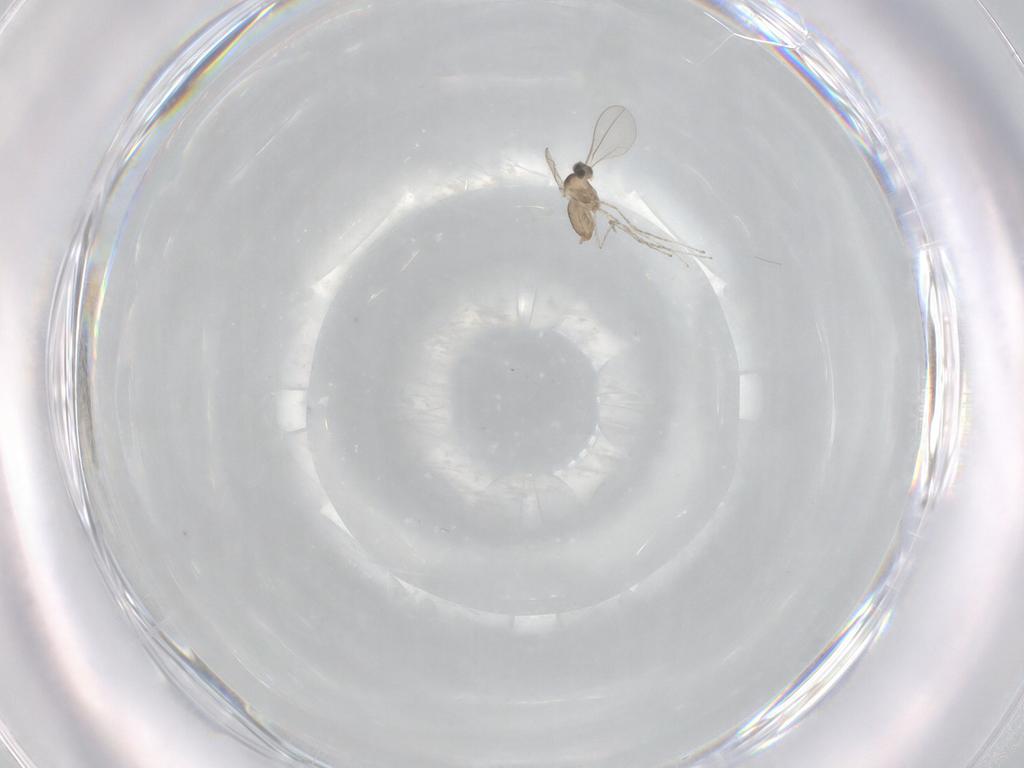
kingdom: Animalia
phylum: Arthropoda
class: Insecta
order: Diptera
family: Cecidomyiidae
